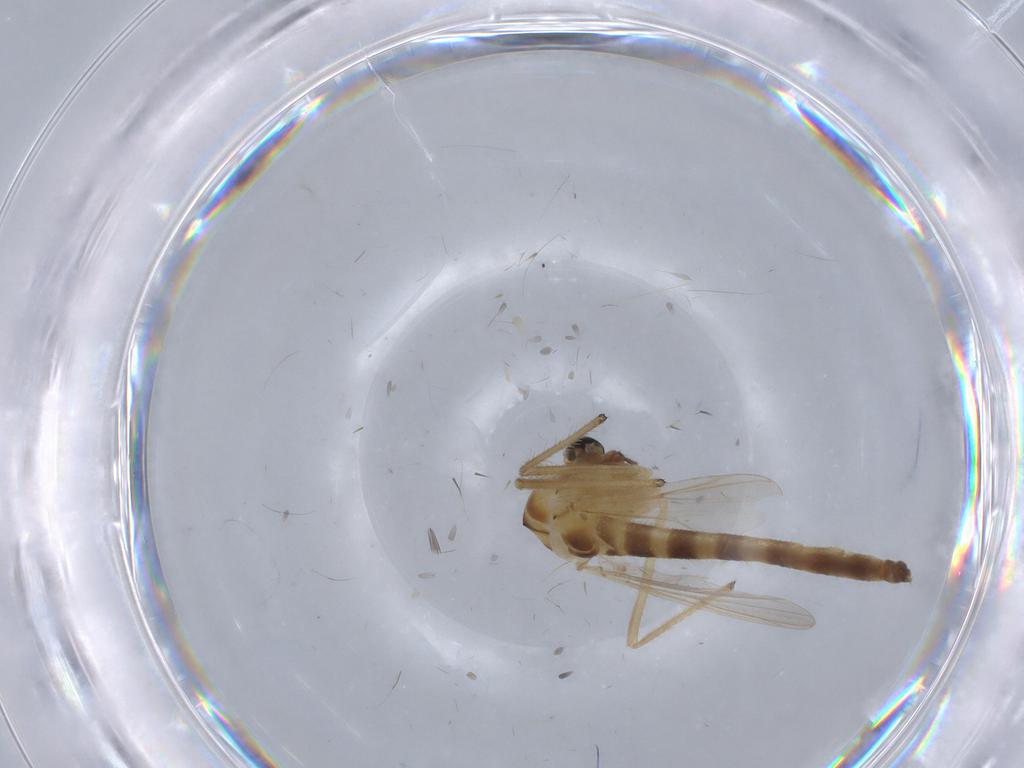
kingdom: Animalia
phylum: Arthropoda
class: Insecta
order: Diptera
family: Chironomidae
